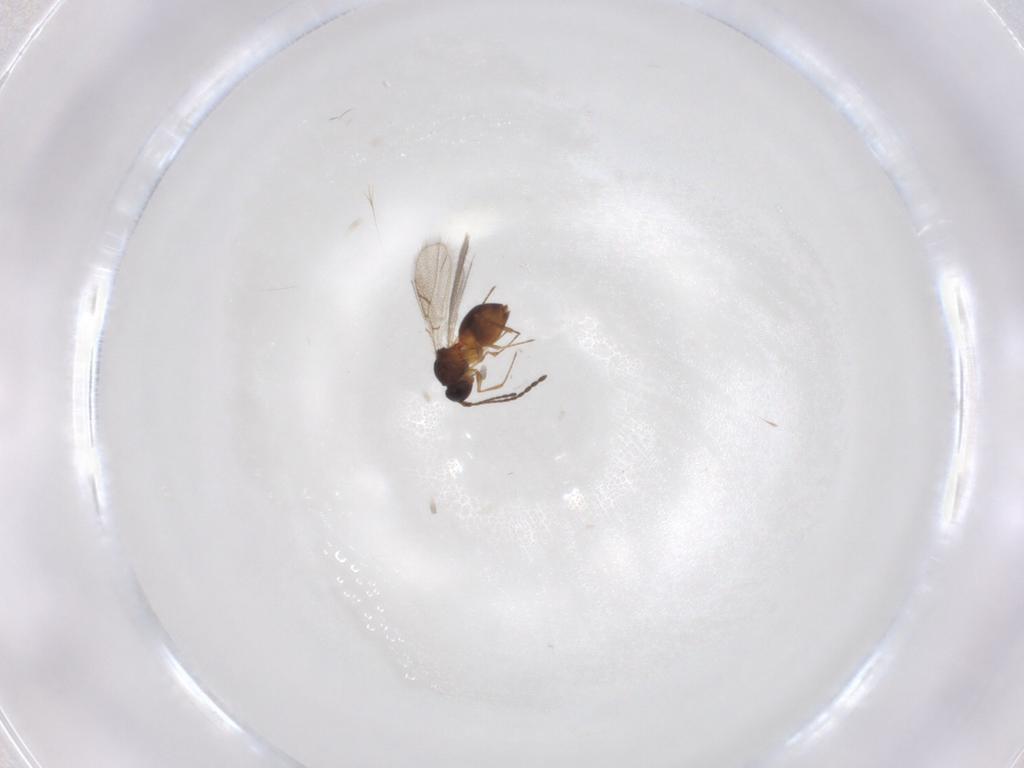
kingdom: Animalia
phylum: Arthropoda
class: Insecta
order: Hymenoptera
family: Figitidae
